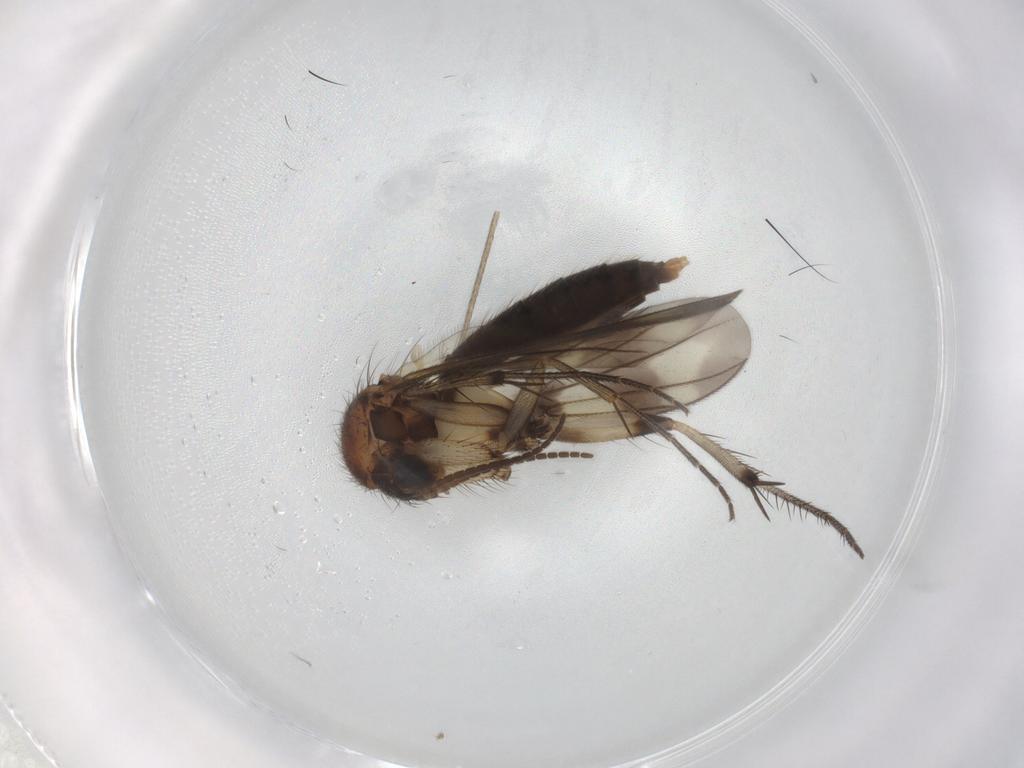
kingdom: Animalia
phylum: Arthropoda
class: Insecta
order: Diptera
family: Mycetophilidae
